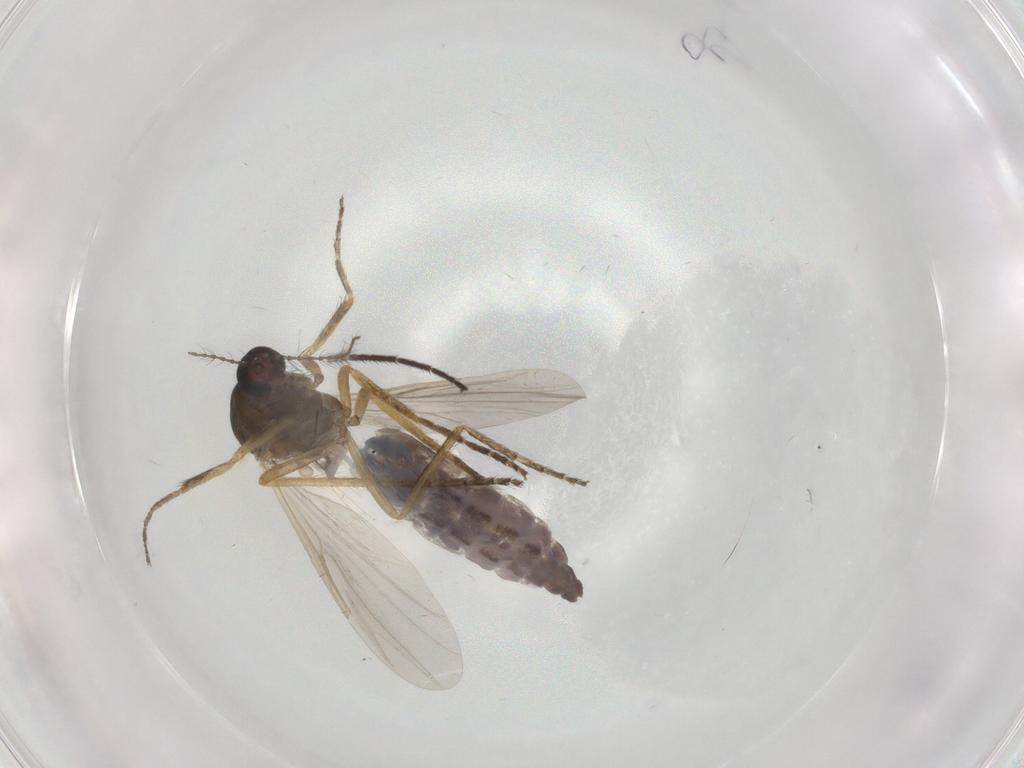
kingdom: Animalia
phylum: Arthropoda
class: Insecta
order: Diptera
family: Ceratopogonidae
